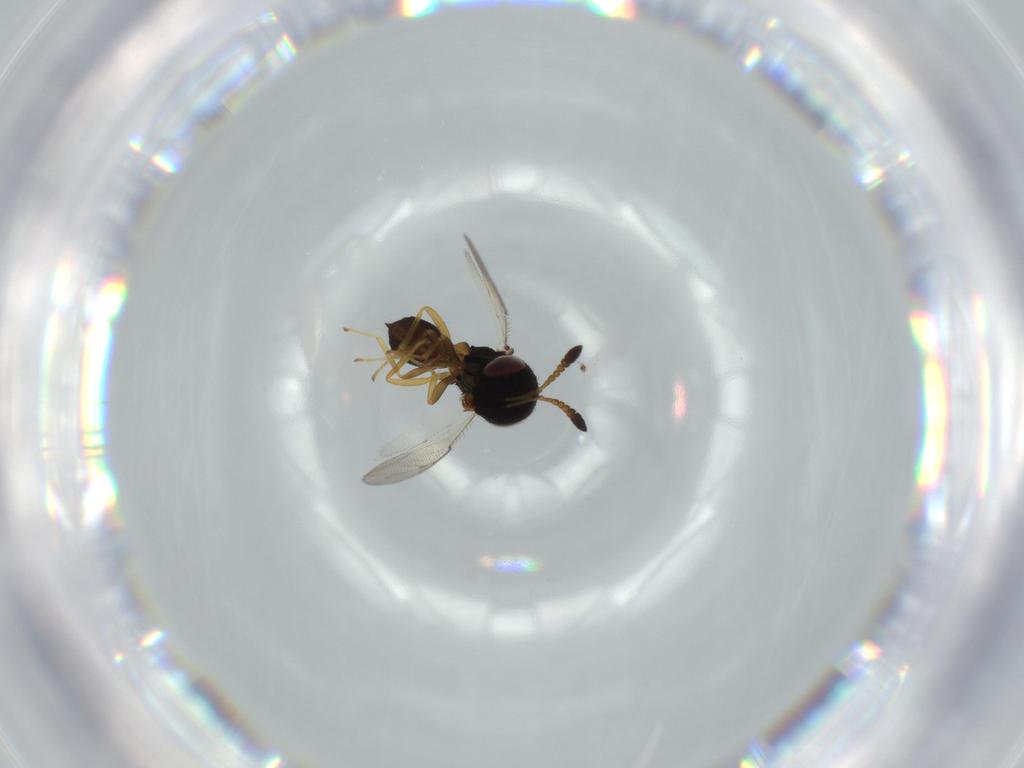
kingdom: Animalia
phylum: Arthropoda
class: Insecta
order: Hymenoptera
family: Pteromalidae
